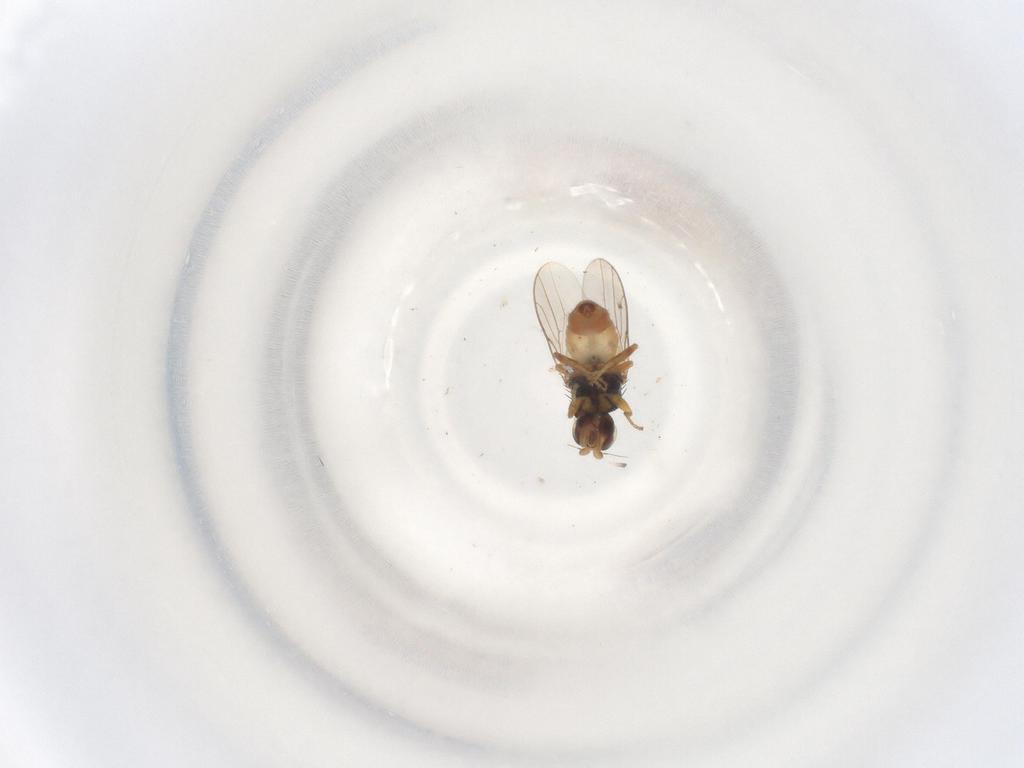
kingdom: Animalia
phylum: Arthropoda
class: Insecta
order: Diptera
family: Chloropidae
